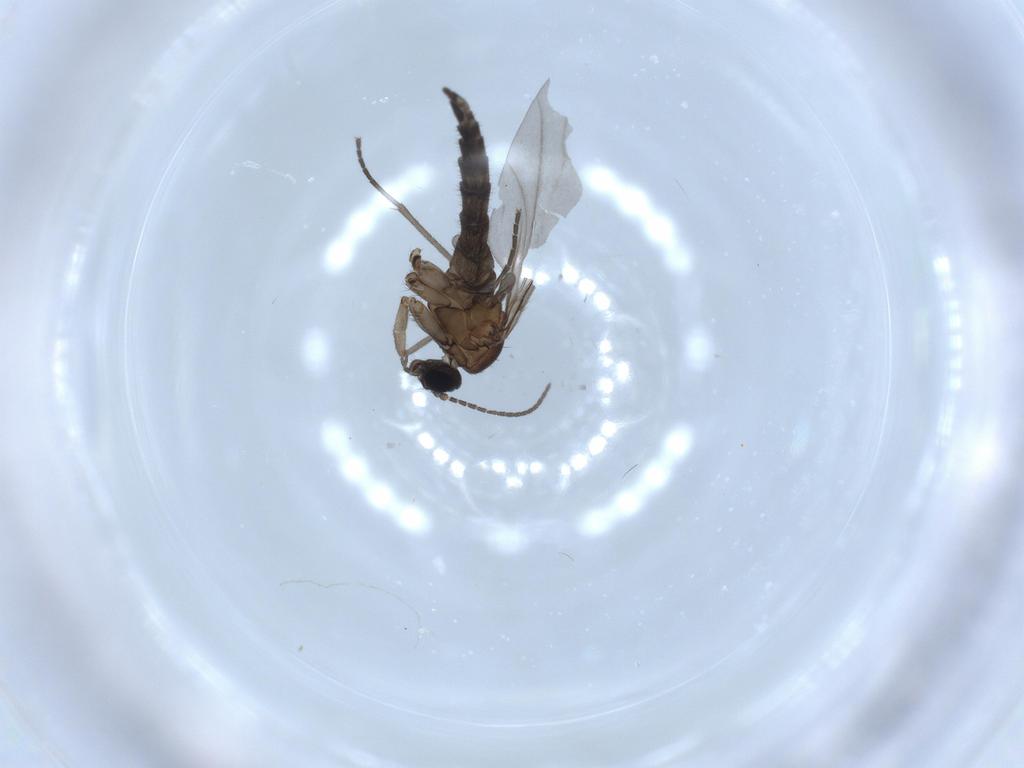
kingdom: Animalia
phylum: Arthropoda
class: Insecta
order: Diptera
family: Sciaridae
